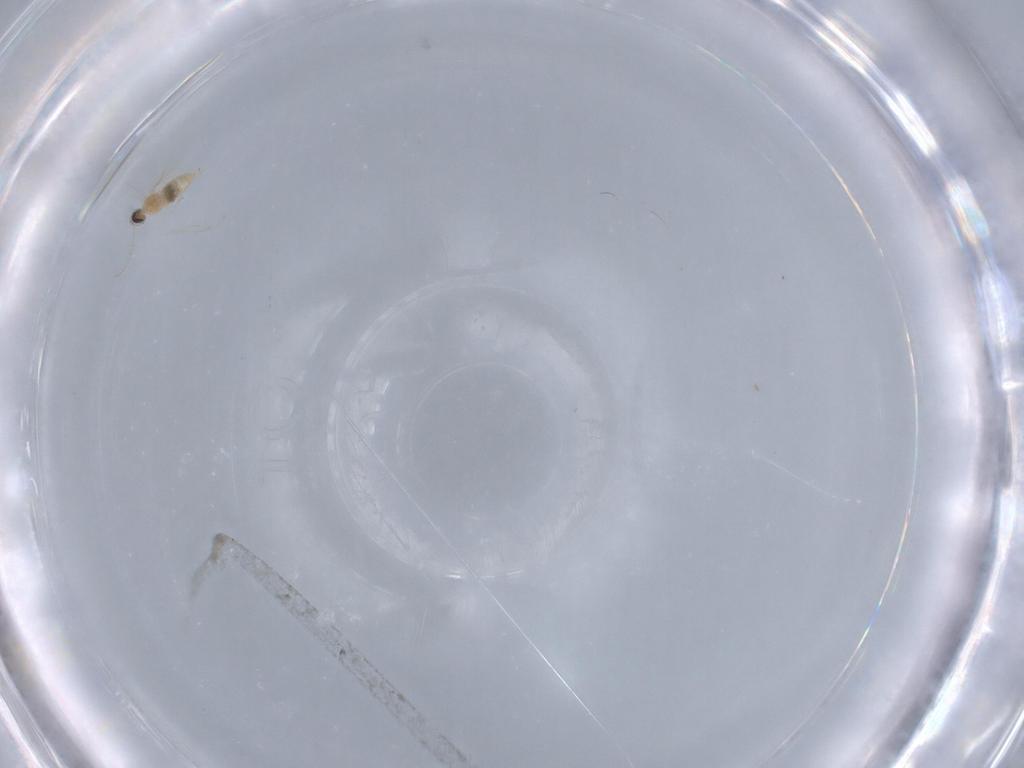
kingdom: Animalia
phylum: Arthropoda
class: Insecta
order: Diptera
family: Cecidomyiidae
